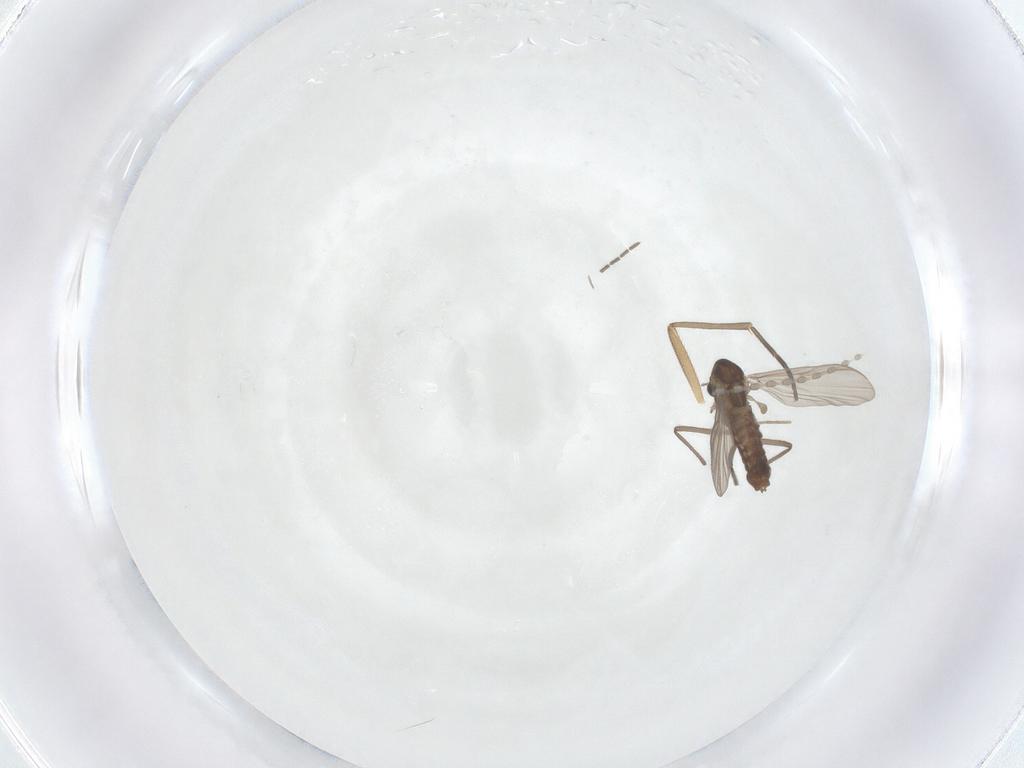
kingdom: Animalia
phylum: Arthropoda
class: Insecta
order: Diptera
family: Chironomidae
